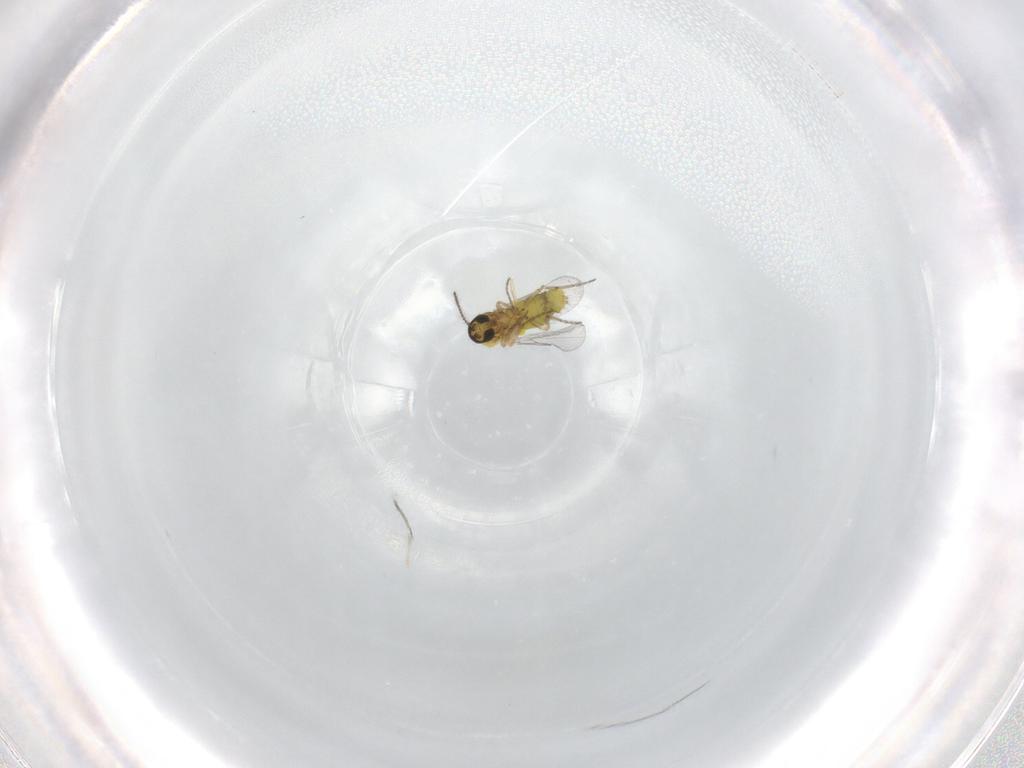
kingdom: Animalia
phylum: Arthropoda
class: Insecta
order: Diptera
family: Cecidomyiidae
